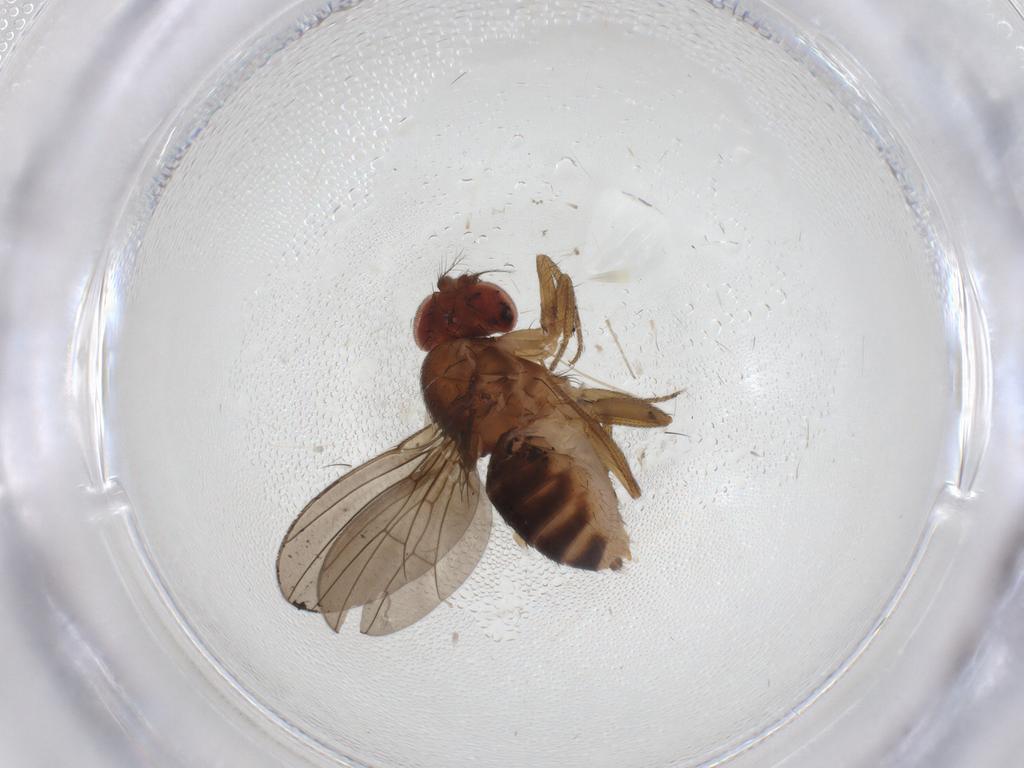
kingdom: Animalia
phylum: Arthropoda
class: Insecta
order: Diptera
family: Drosophilidae
